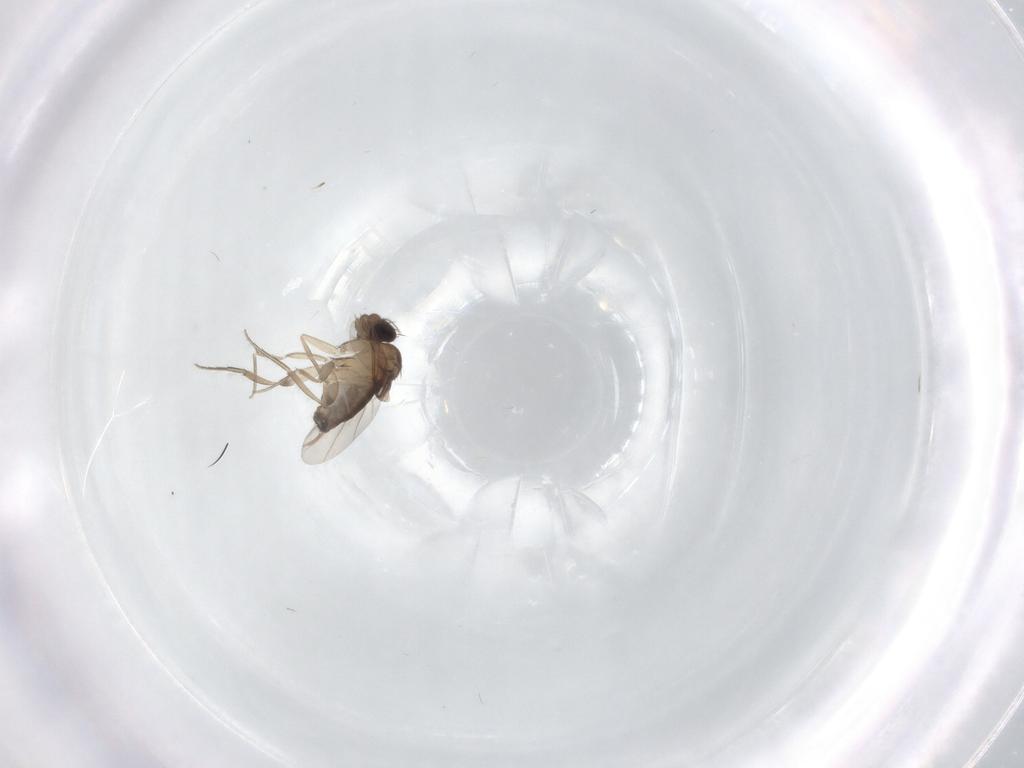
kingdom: Animalia
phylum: Arthropoda
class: Insecta
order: Diptera
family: Phoridae
